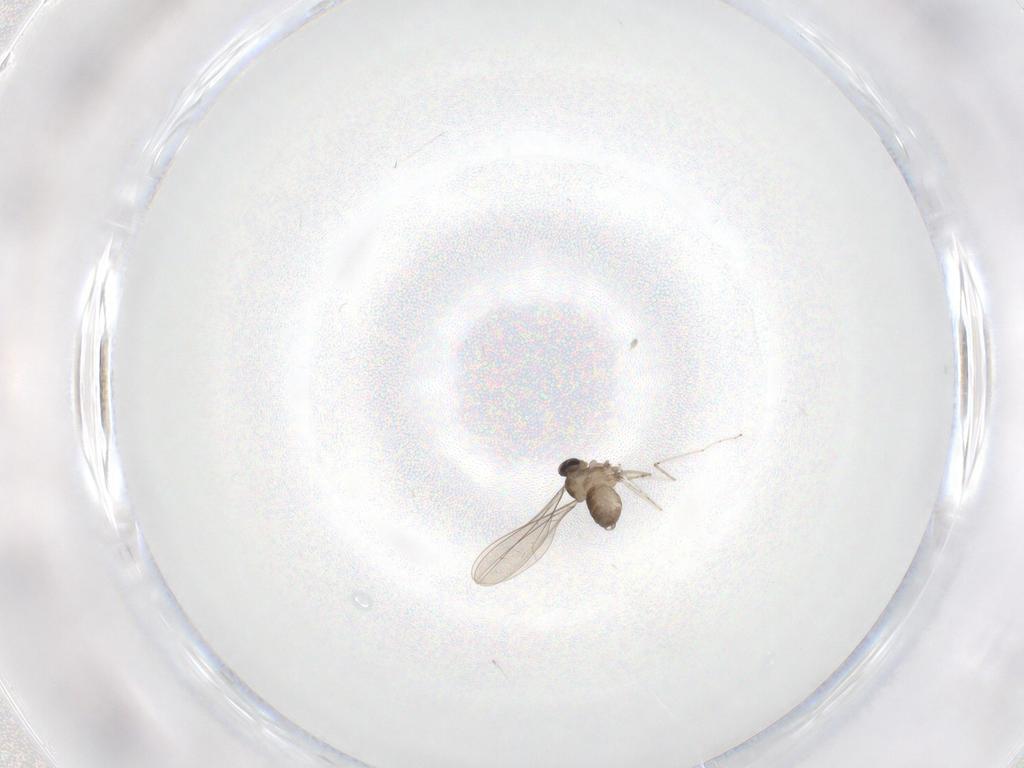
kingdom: Animalia
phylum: Arthropoda
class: Insecta
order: Diptera
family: Cecidomyiidae
